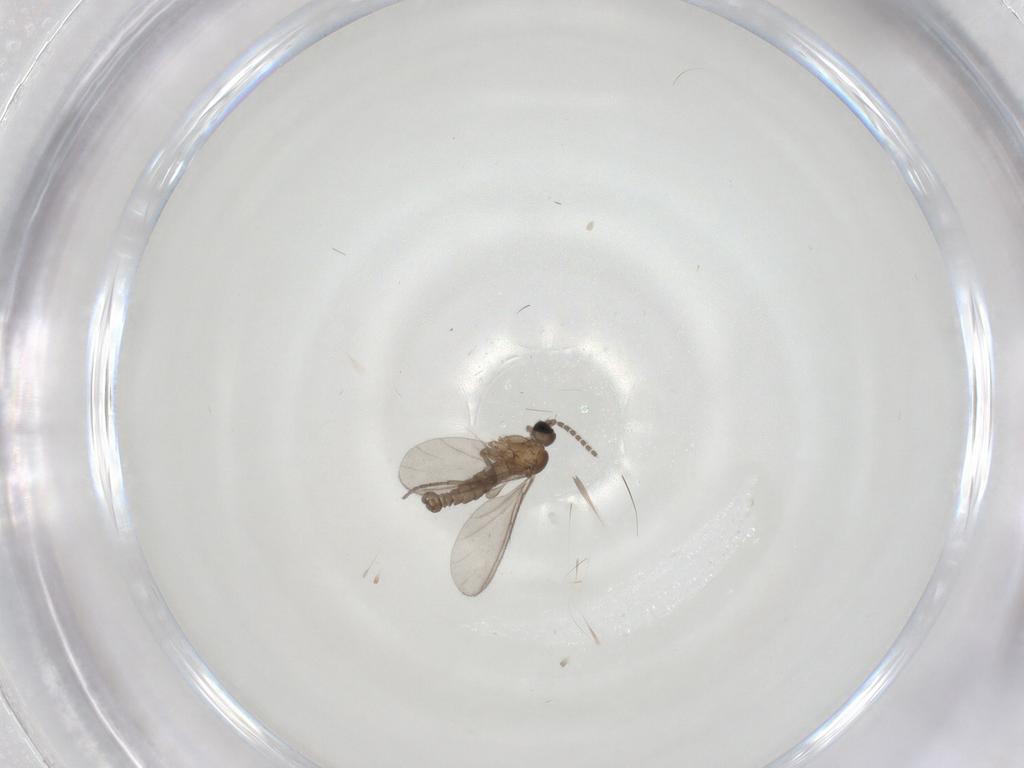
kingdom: Animalia
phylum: Arthropoda
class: Insecta
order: Diptera
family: Sciaridae
